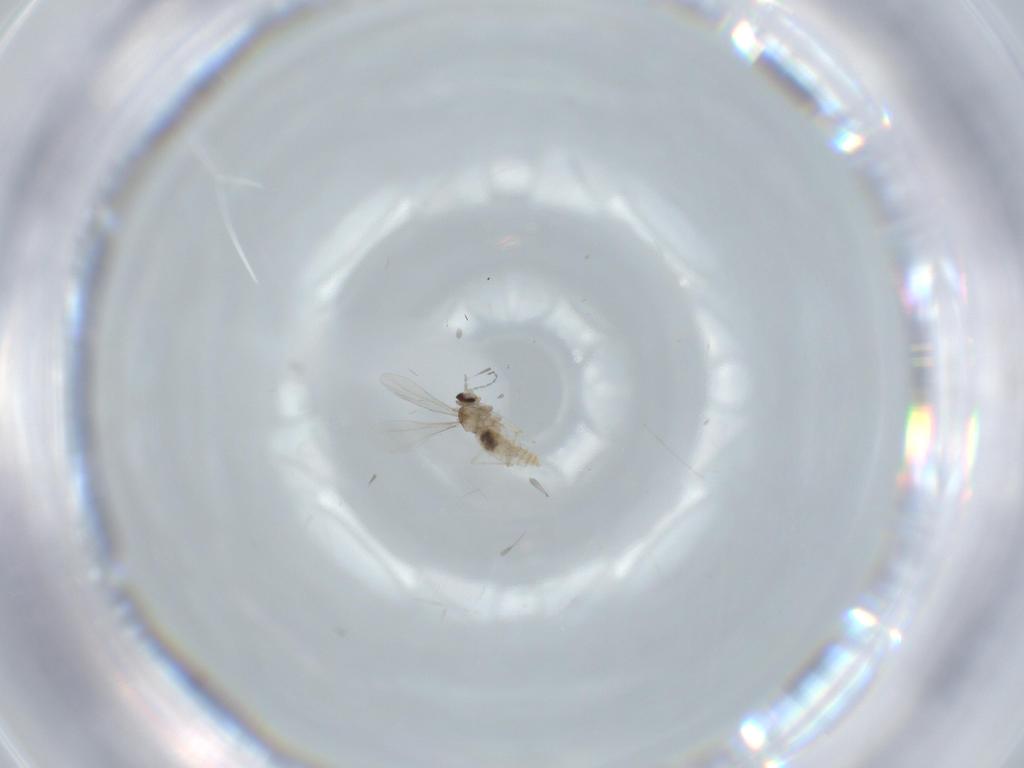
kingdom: Animalia
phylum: Arthropoda
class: Insecta
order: Diptera
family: Cecidomyiidae
